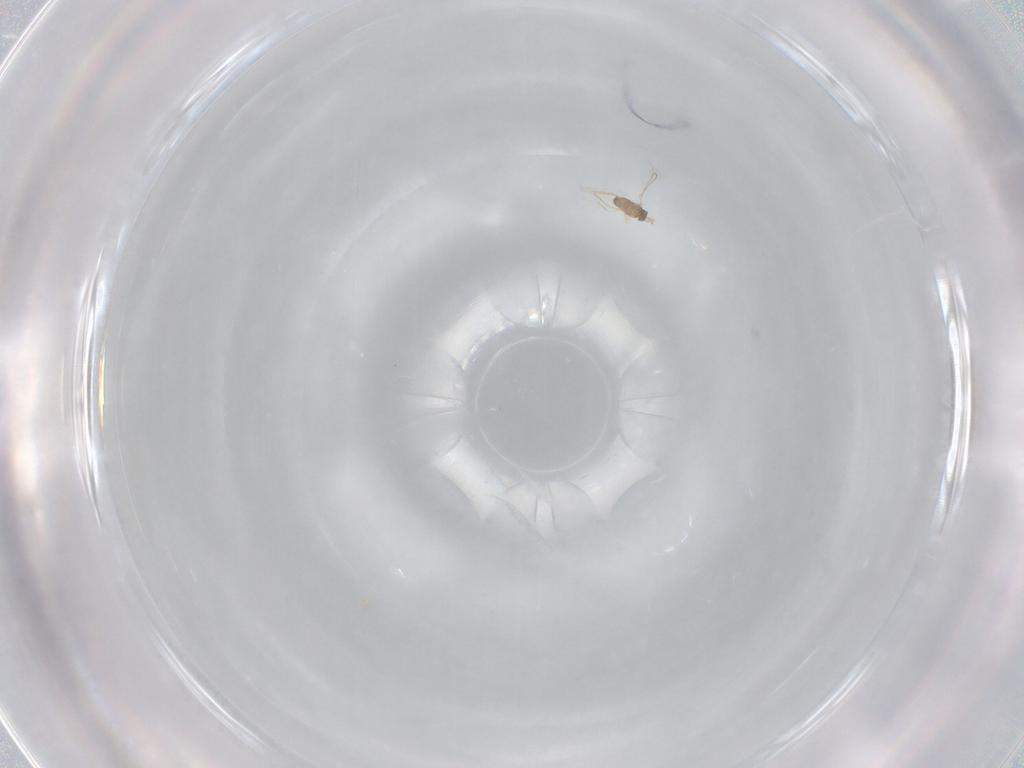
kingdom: Animalia
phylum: Arthropoda
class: Insecta
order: Hymenoptera
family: Mymaridae
